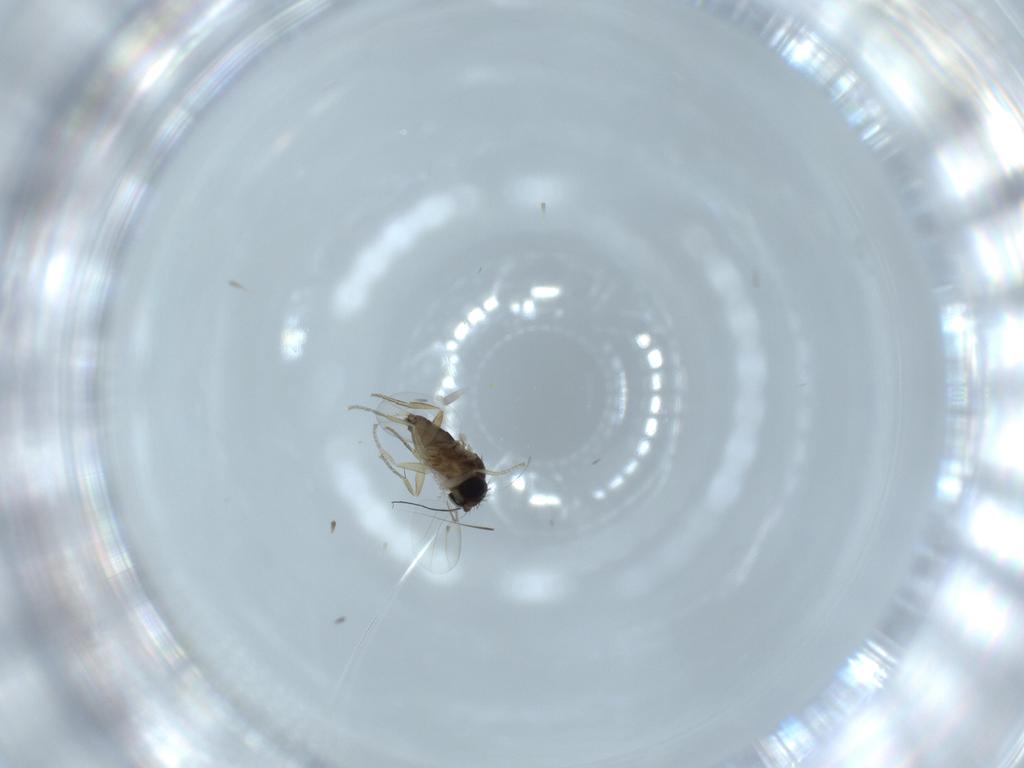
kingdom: Animalia
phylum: Arthropoda
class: Insecta
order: Diptera
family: Phoridae
